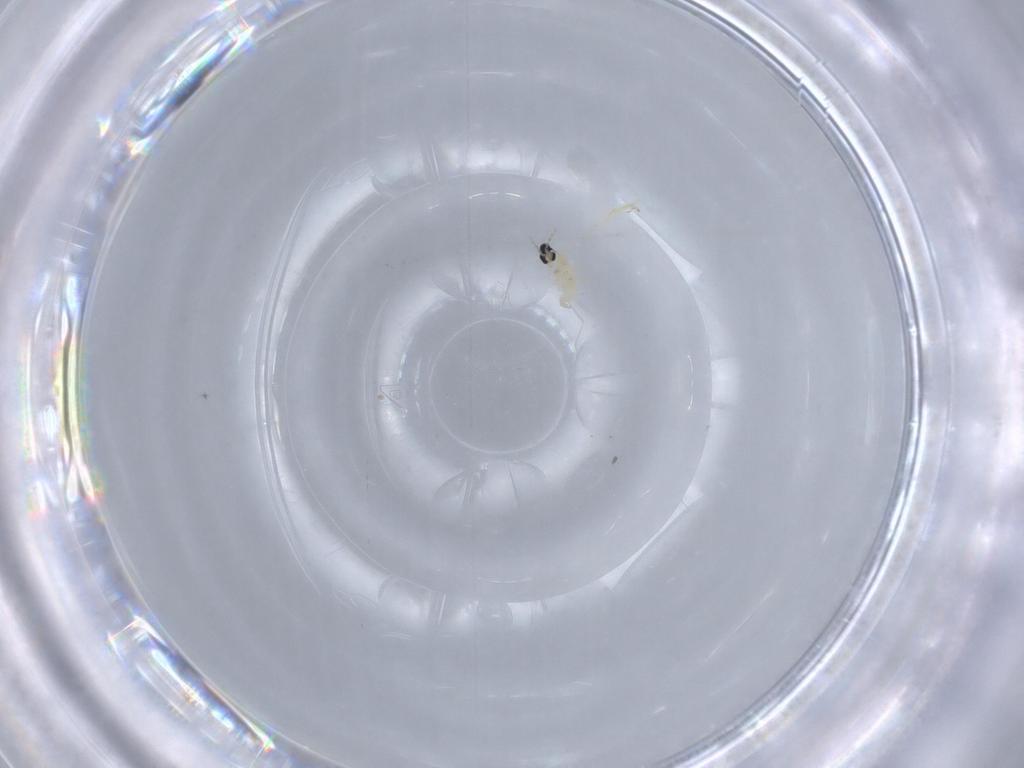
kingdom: Animalia
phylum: Arthropoda
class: Insecta
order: Diptera
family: Cecidomyiidae
